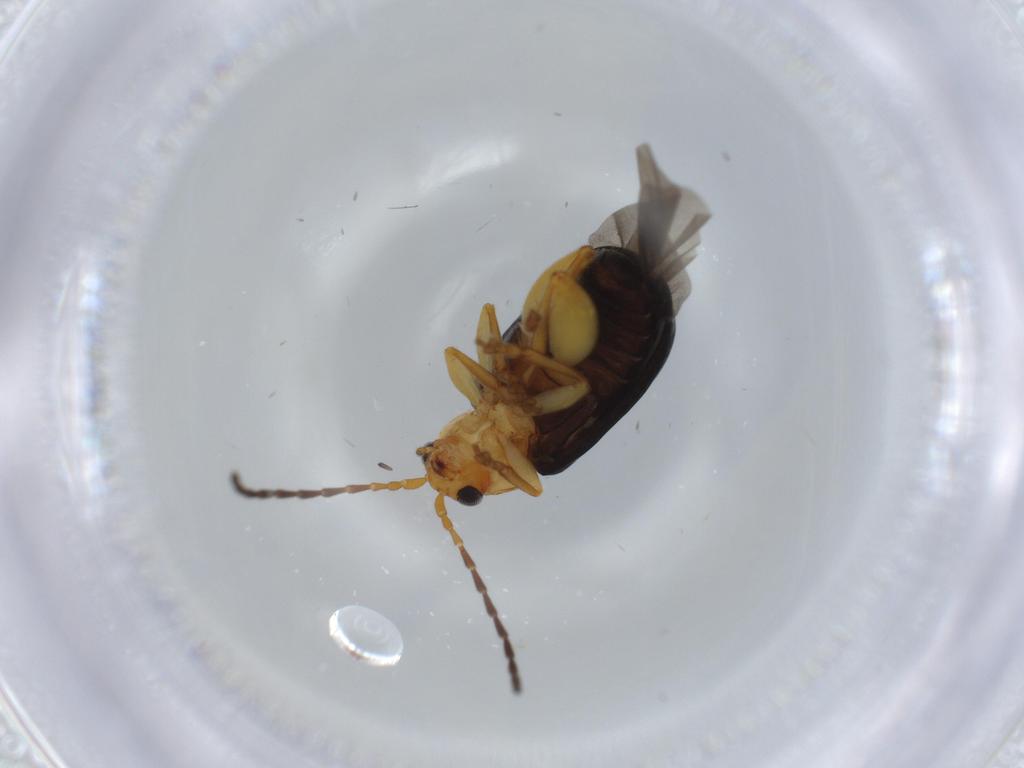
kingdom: Animalia
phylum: Arthropoda
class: Insecta
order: Coleoptera
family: Chrysomelidae
